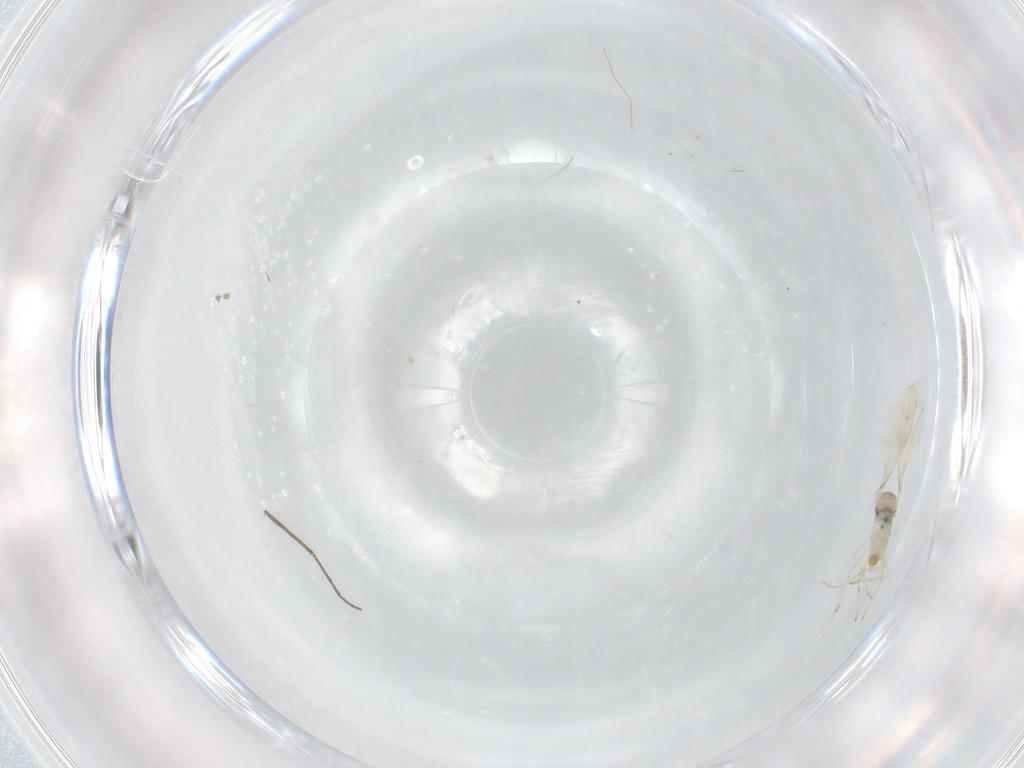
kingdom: Animalia
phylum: Arthropoda
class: Insecta
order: Diptera
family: Cecidomyiidae
